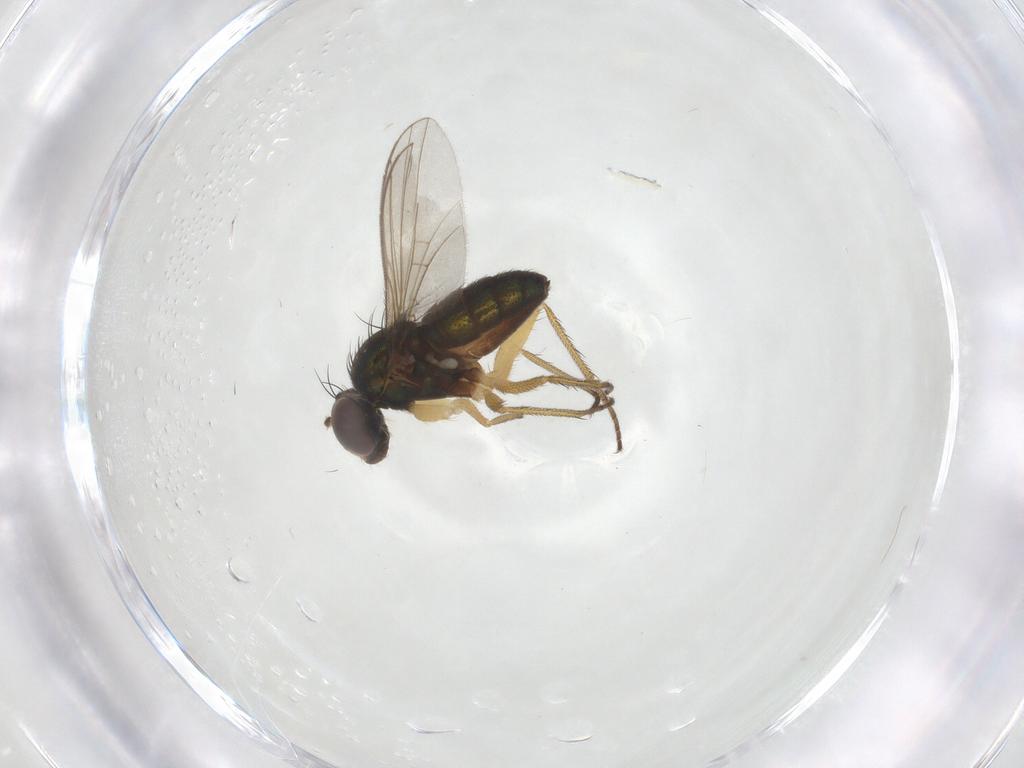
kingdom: Animalia
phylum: Arthropoda
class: Insecta
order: Diptera
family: Dolichopodidae
